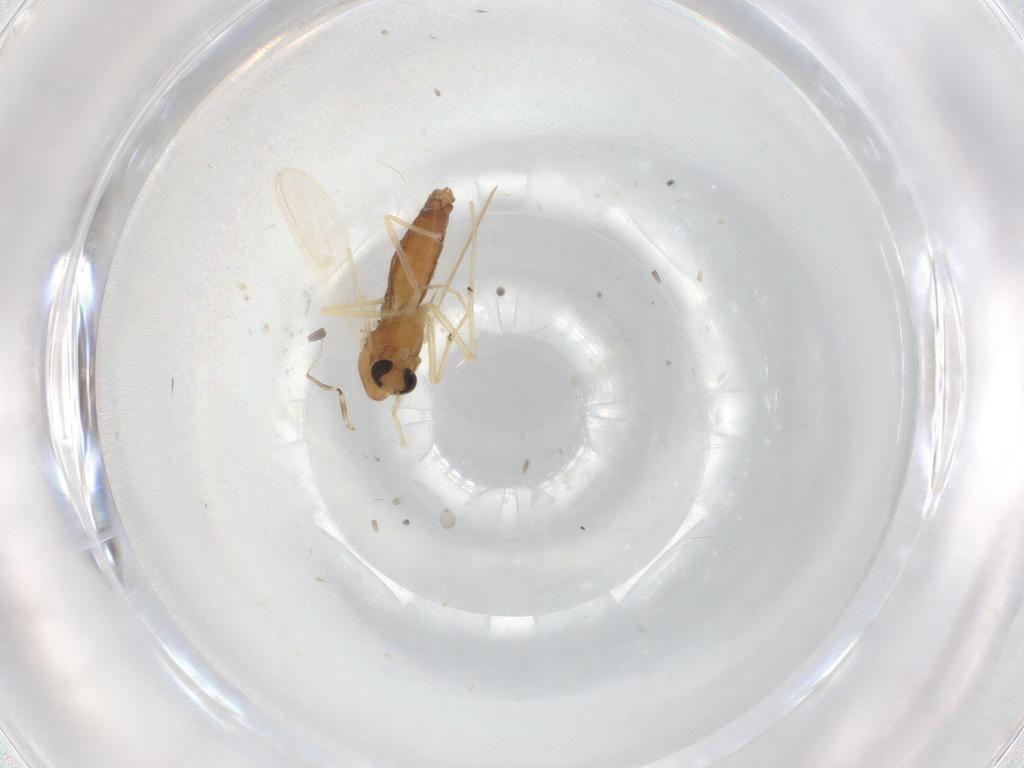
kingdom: Animalia
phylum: Arthropoda
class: Insecta
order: Diptera
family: Chironomidae
